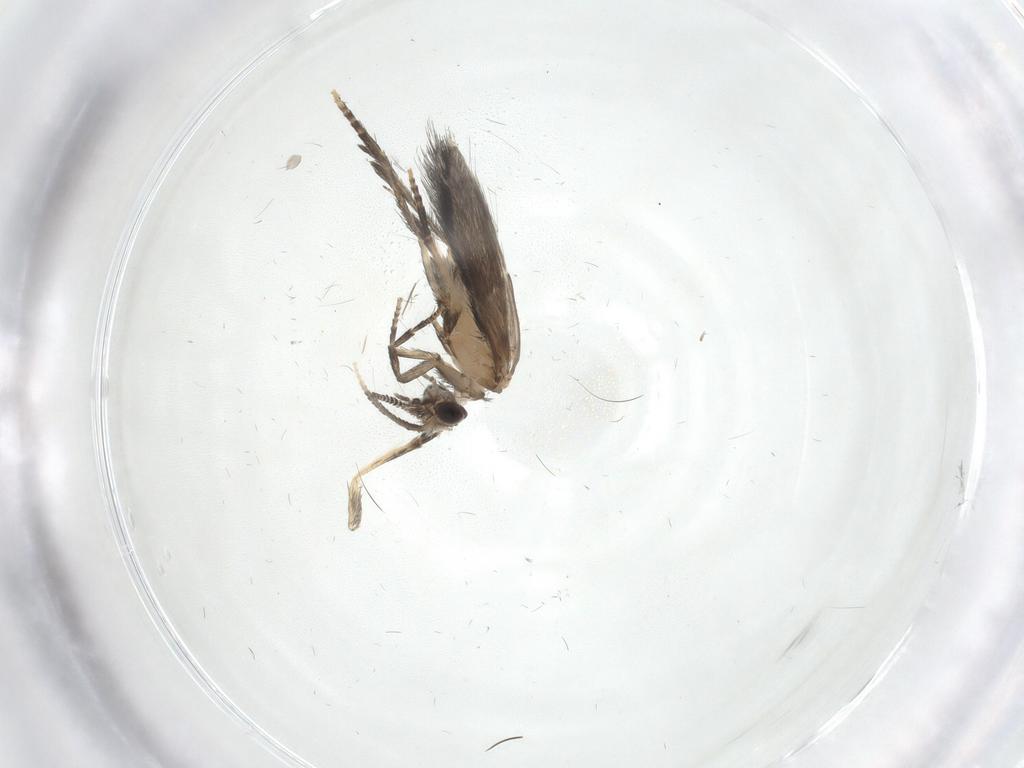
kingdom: Animalia
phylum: Arthropoda
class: Insecta
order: Trichoptera
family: Hydroptilidae
